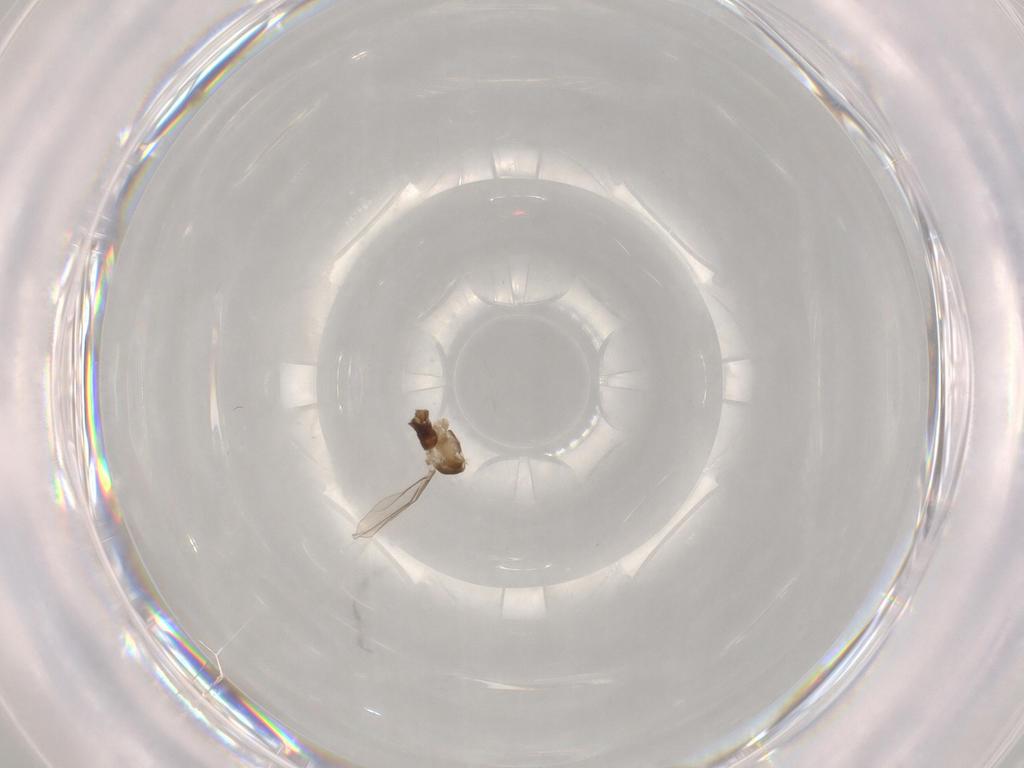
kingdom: Animalia
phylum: Arthropoda
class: Insecta
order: Diptera
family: Cecidomyiidae
